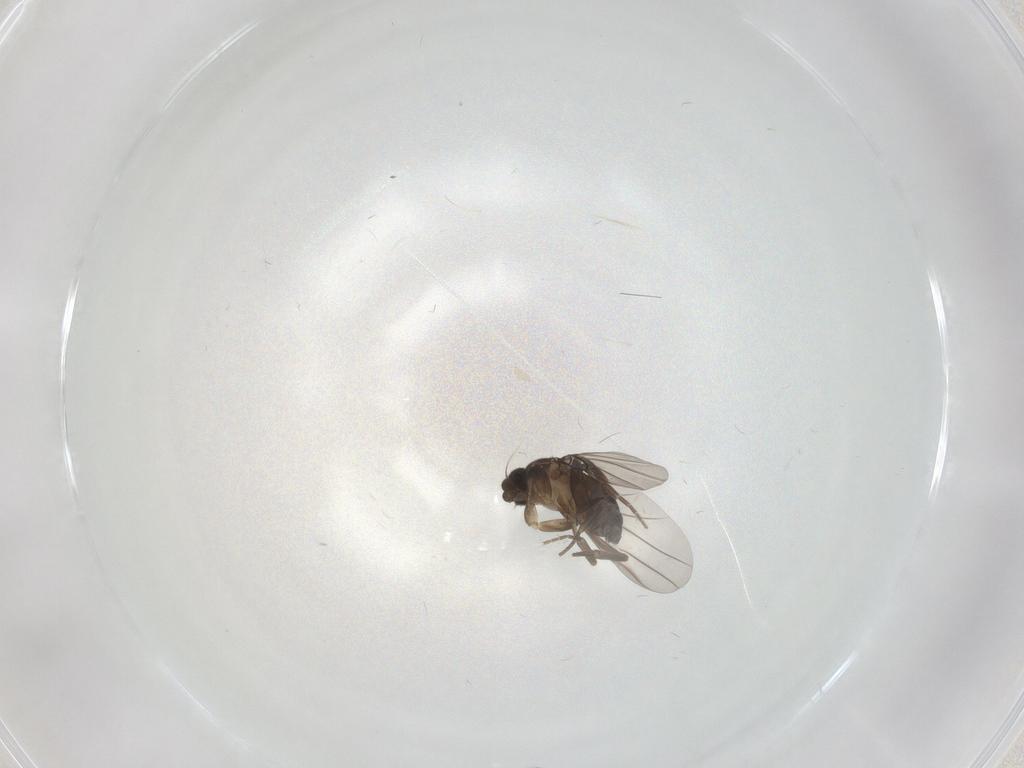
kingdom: Animalia
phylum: Arthropoda
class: Insecta
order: Diptera
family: Phoridae
